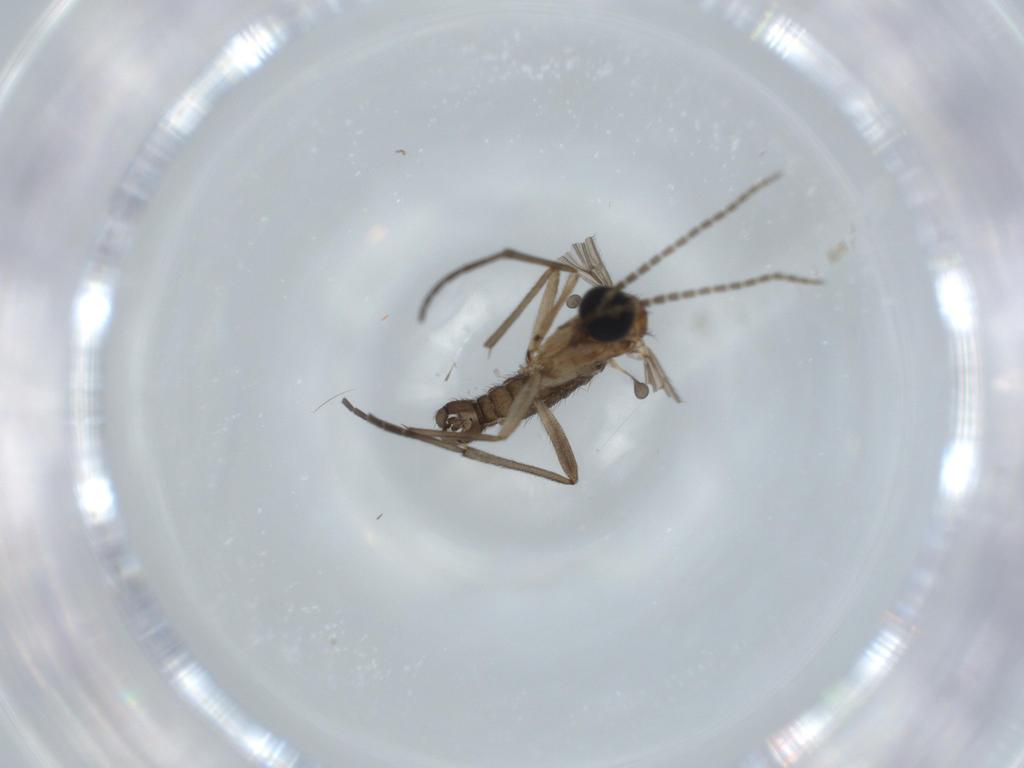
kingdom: Animalia
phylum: Arthropoda
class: Insecta
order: Diptera
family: Sciaridae
